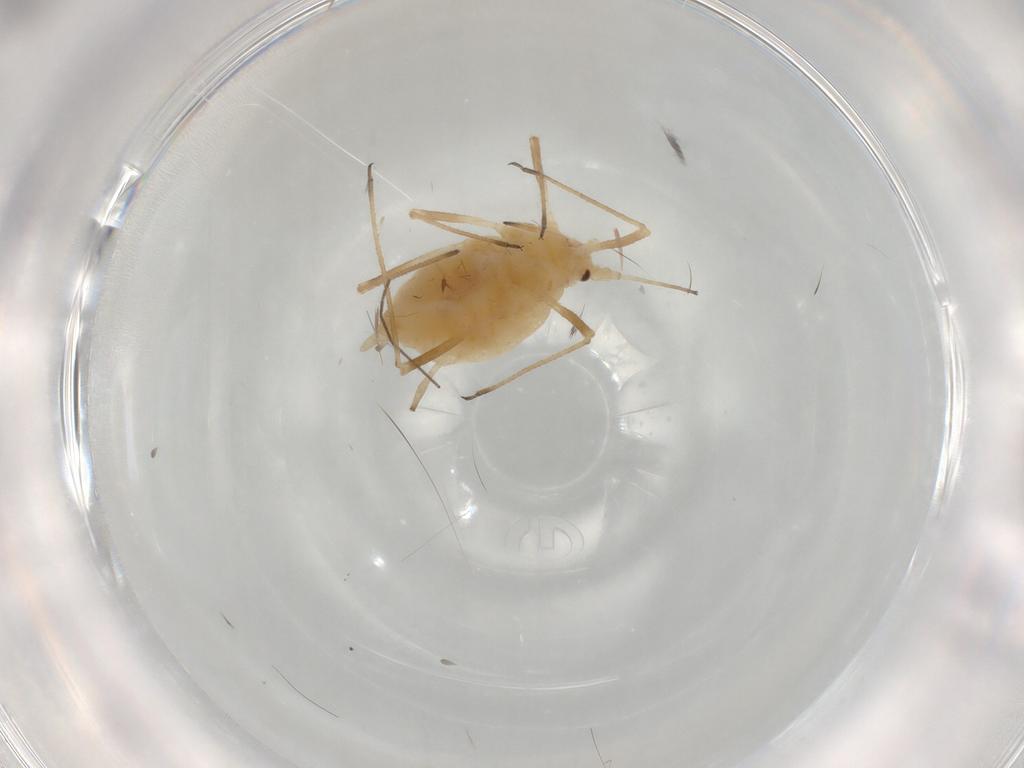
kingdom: Animalia
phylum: Arthropoda
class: Insecta
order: Hemiptera
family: Aphididae
